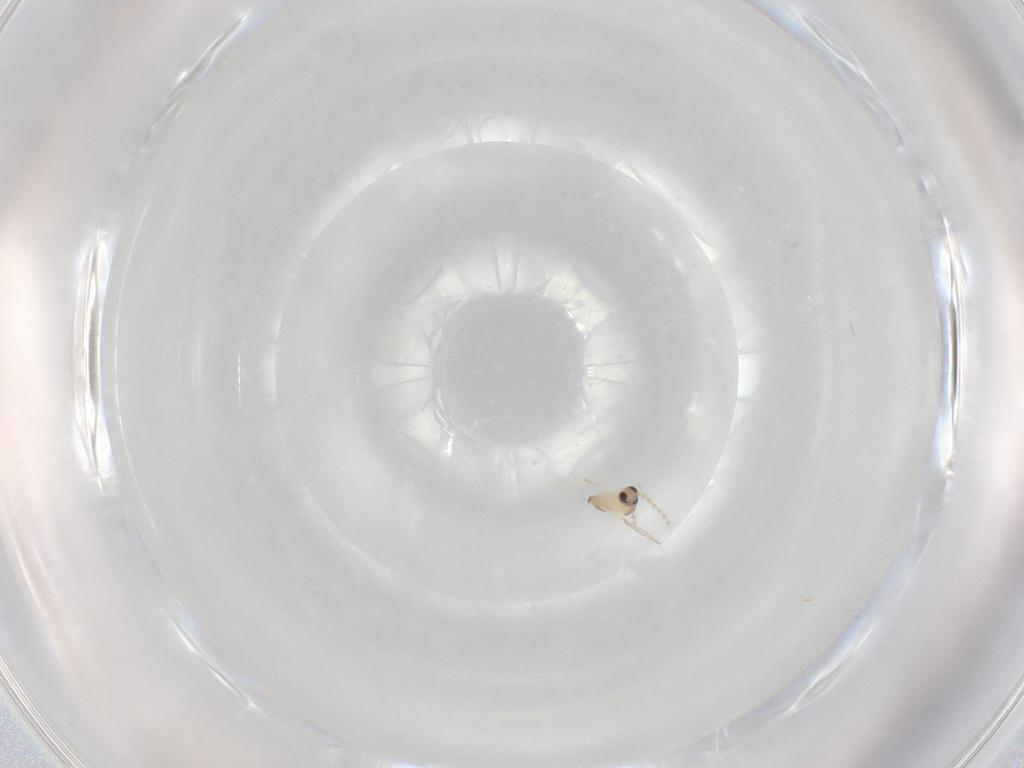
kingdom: Animalia
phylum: Arthropoda
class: Insecta
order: Diptera
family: Cecidomyiidae
